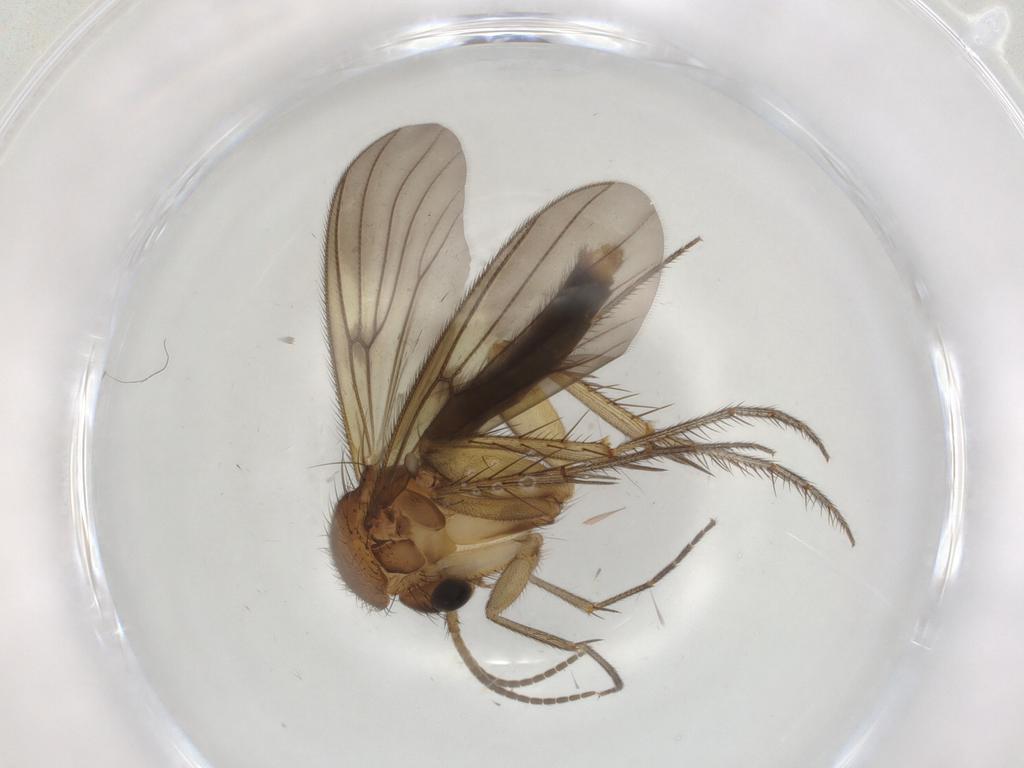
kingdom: Animalia
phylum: Arthropoda
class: Insecta
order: Diptera
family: Mycetophilidae
